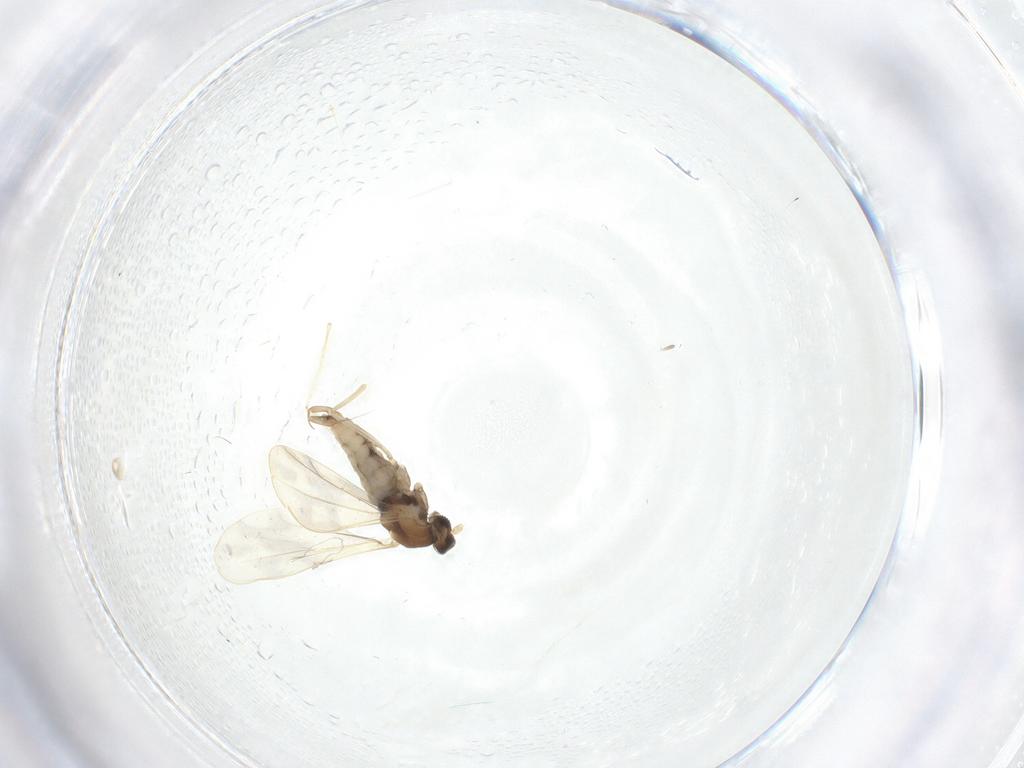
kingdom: Animalia
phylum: Arthropoda
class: Insecta
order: Diptera
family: Cecidomyiidae
